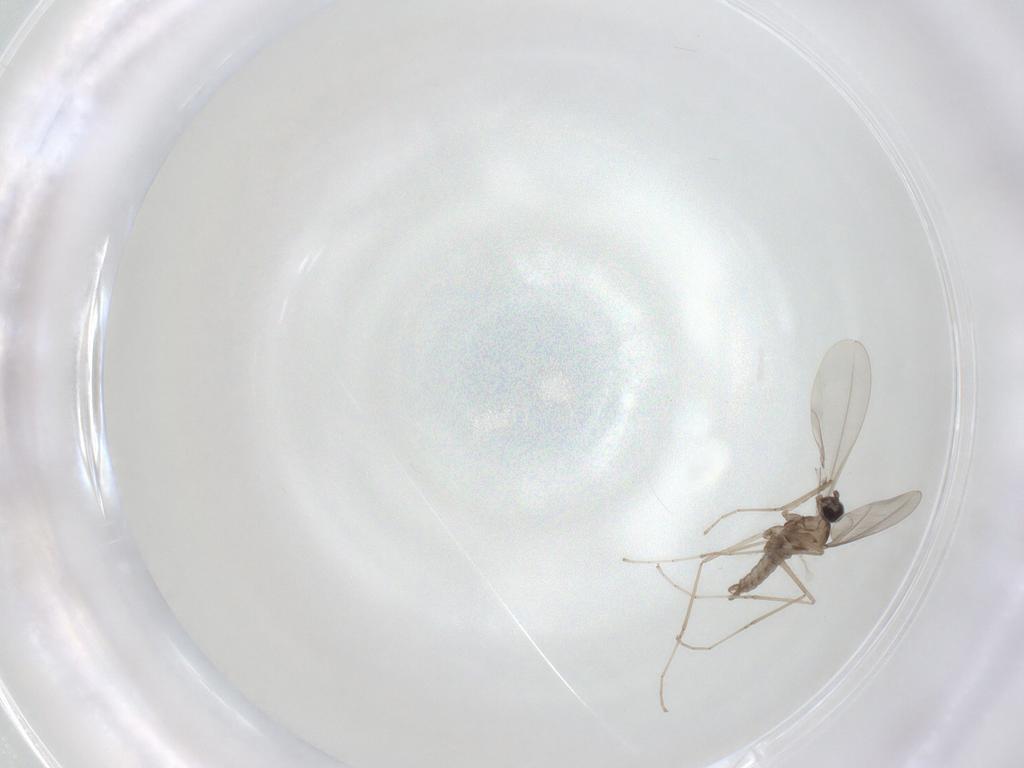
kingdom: Animalia
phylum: Arthropoda
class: Insecta
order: Diptera
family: Cecidomyiidae
